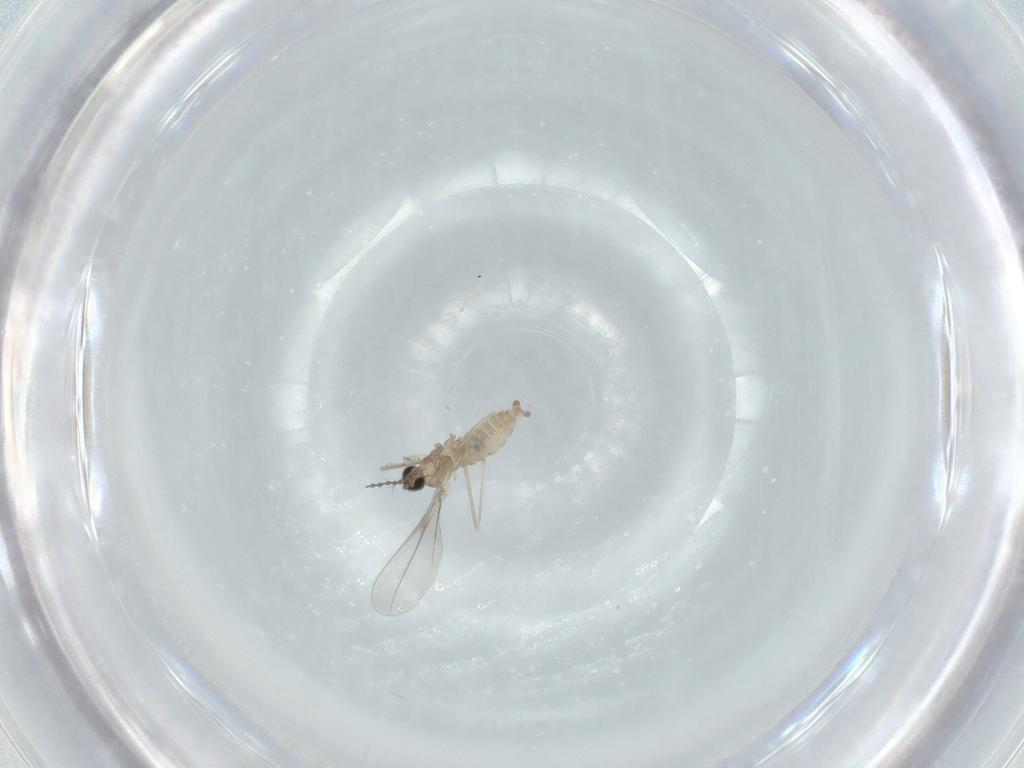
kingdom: Animalia
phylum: Arthropoda
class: Insecta
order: Diptera
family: Cecidomyiidae
